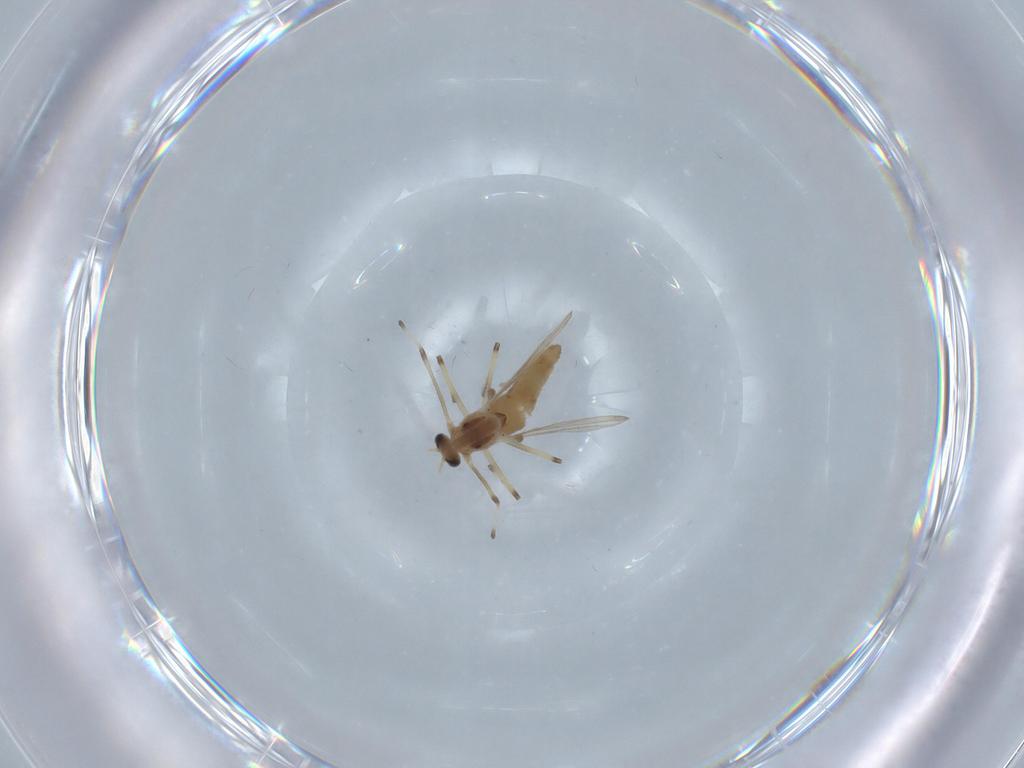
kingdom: Animalia
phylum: Arthropoda
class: Insecta
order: Diptera
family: Chironomidae
